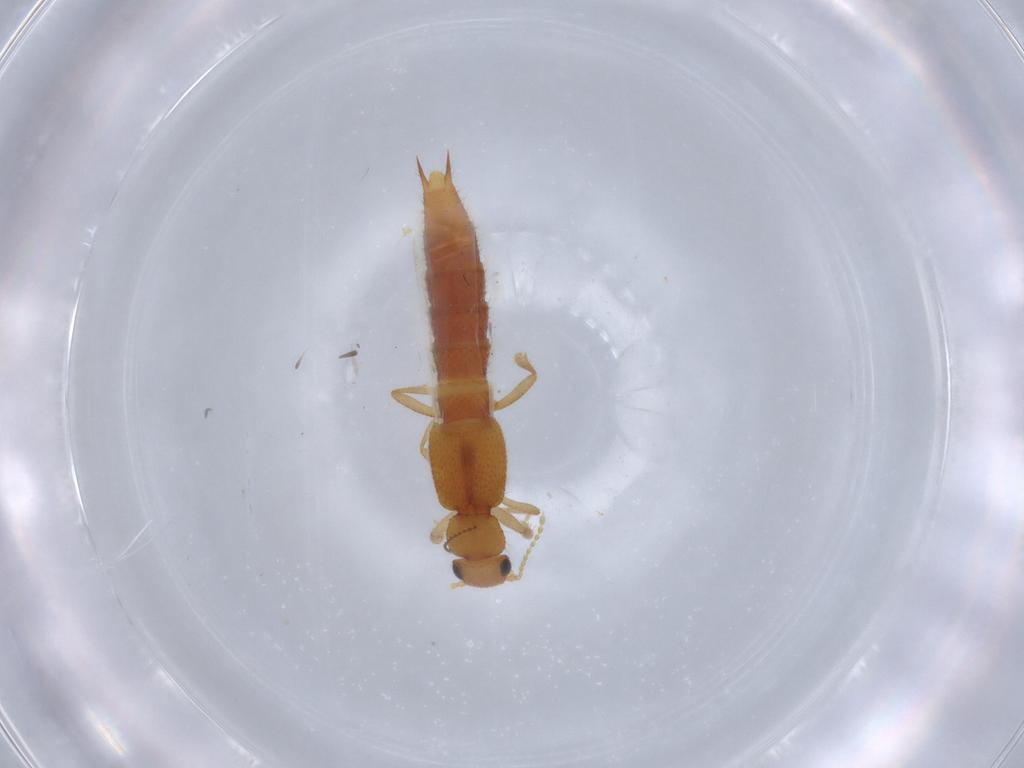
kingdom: Animalia
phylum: Arthropoda
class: Insecta
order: Coleoptera
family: Staphylinidae
